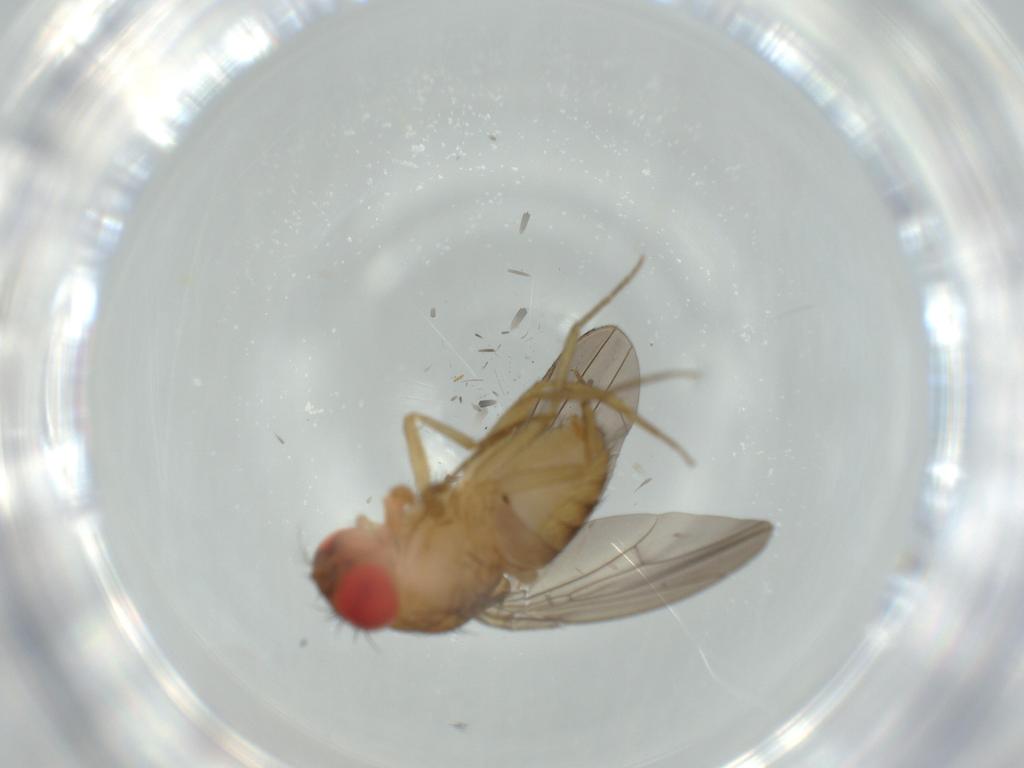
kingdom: Animalia
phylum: Arthropoda
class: Insecta
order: Diptera
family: Drosophilidae
